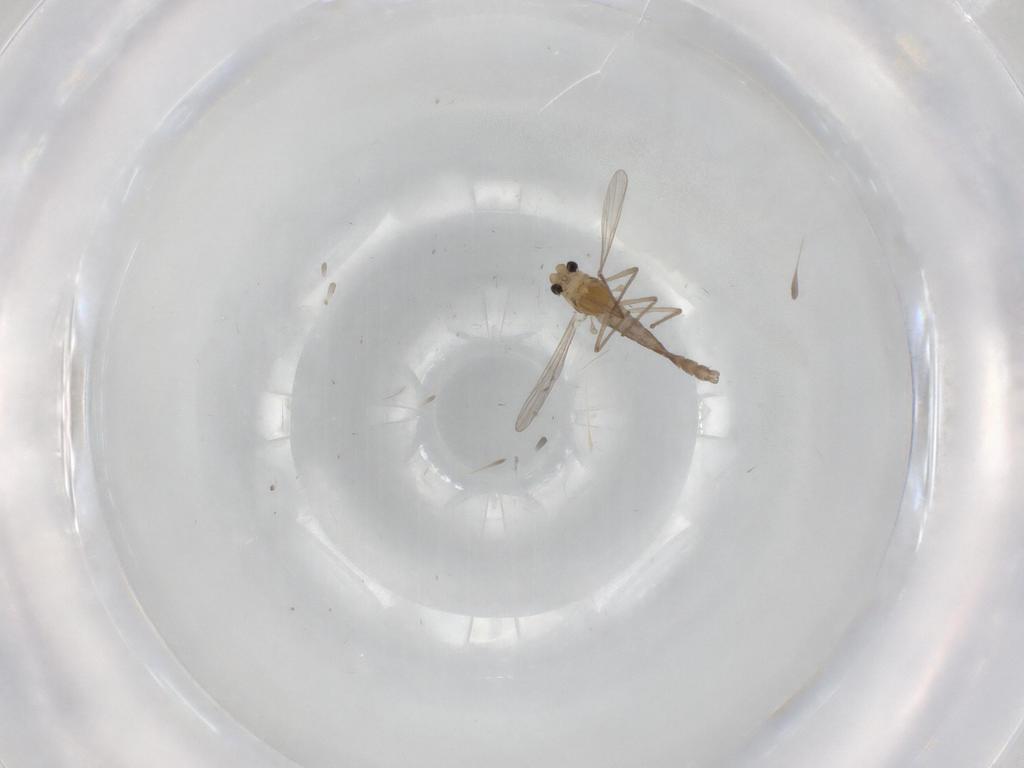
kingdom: Animalia
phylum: Arthropoda
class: Insecta
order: Diptera
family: Chironomidae
